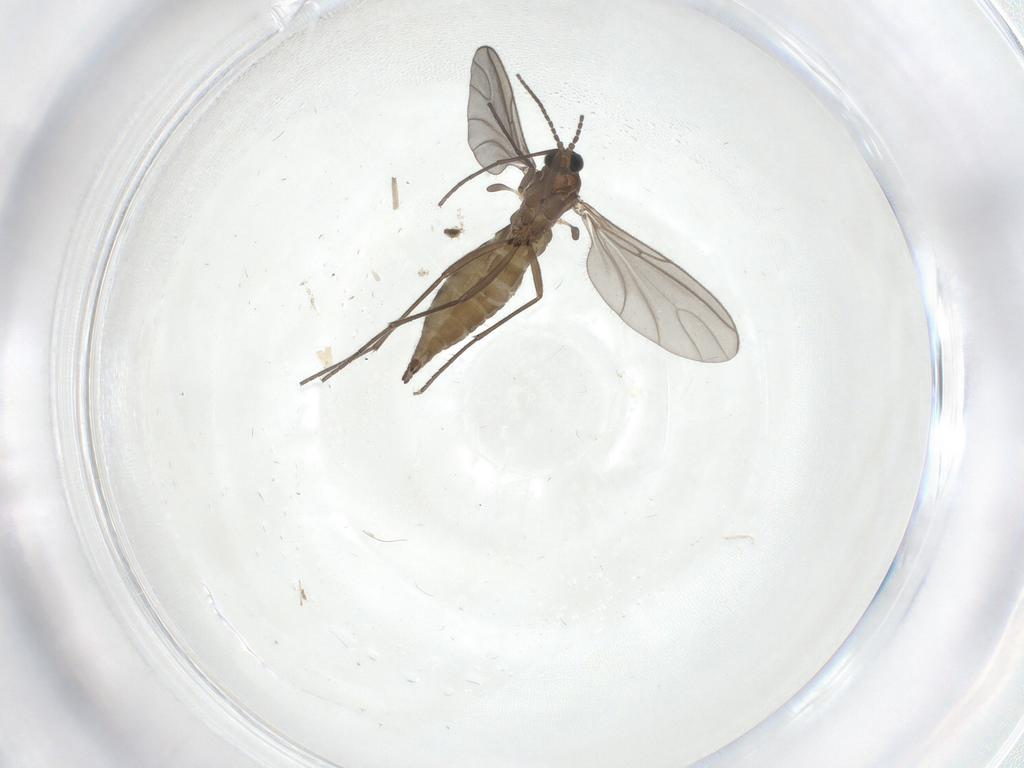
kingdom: Animalia
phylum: Arthropoda
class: Insecta
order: Diptera
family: Sciaridae
